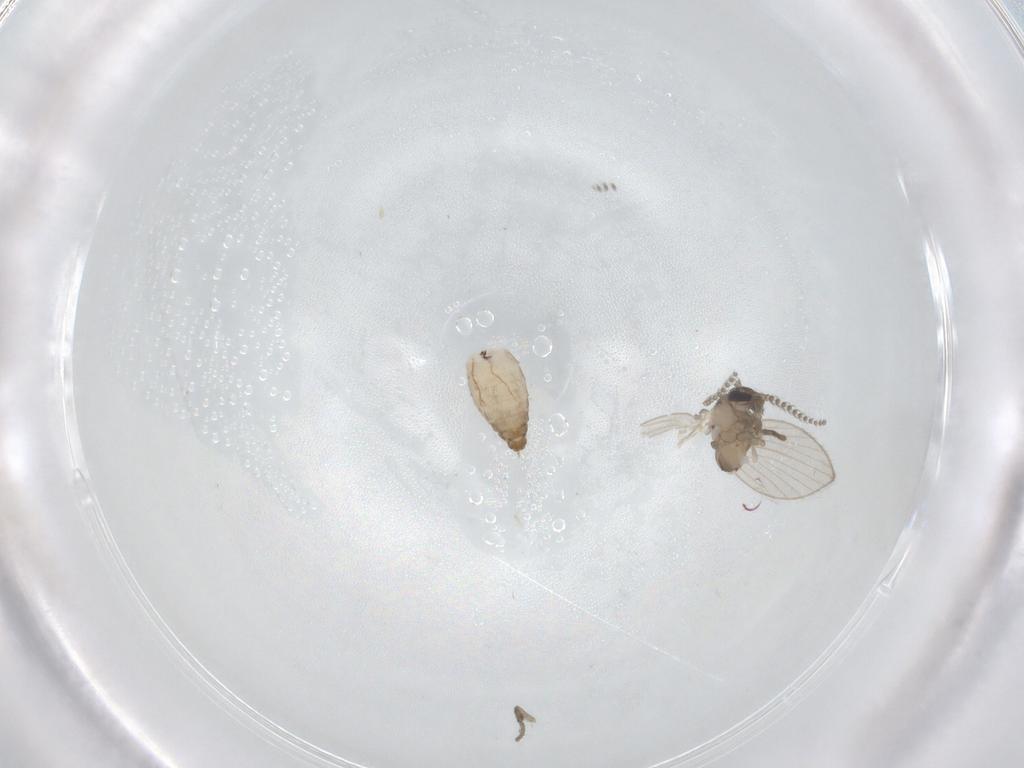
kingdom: Animalia
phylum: Arthropoda
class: Insecta
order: Diptera
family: Psychodidae
